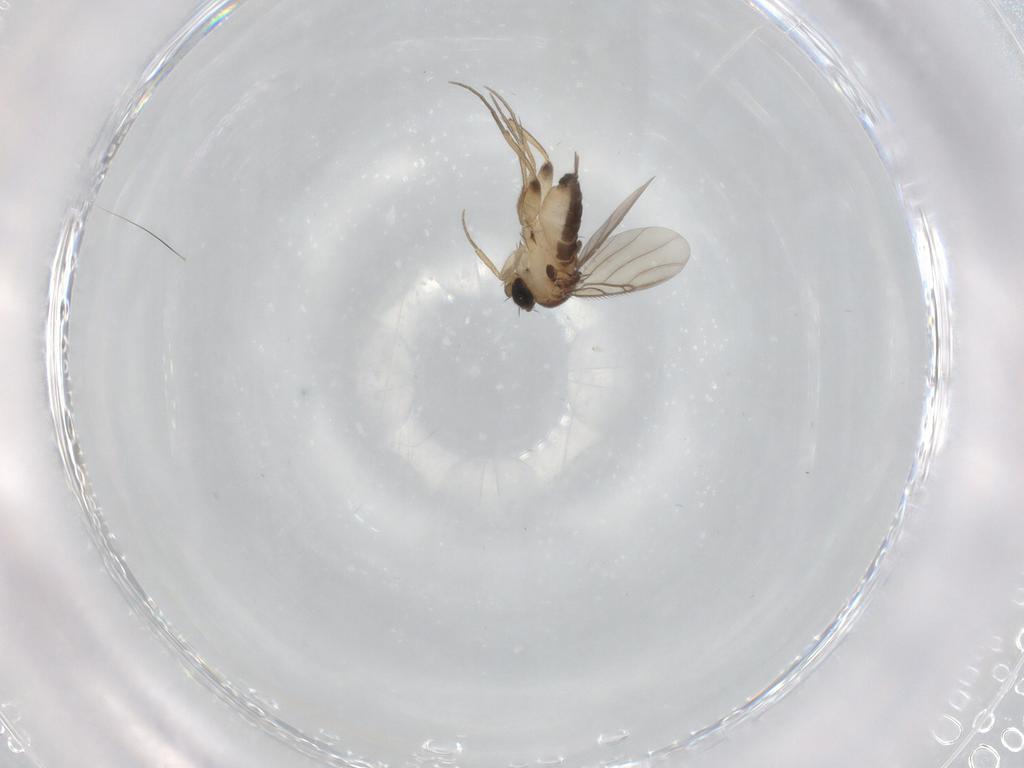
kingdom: Animalia
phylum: Arthropoda
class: Insecta
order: Diptera
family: Phoridae
